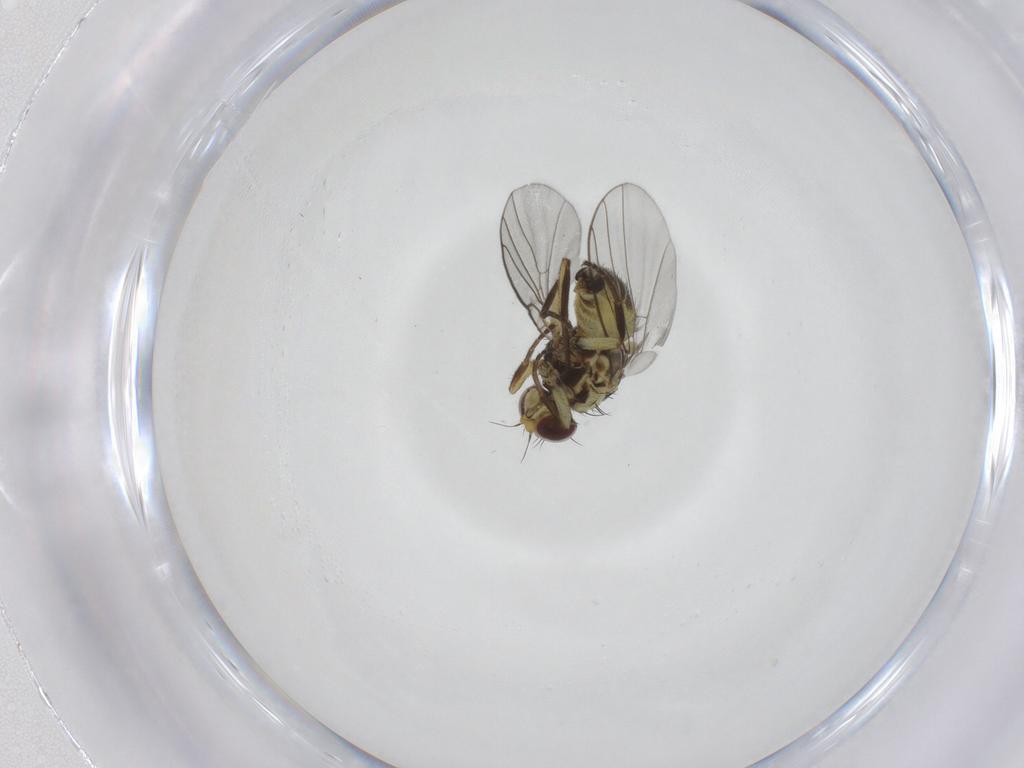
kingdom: Animalia
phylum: Arthropoda
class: Insecta
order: Diptera
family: Agromyzidae
